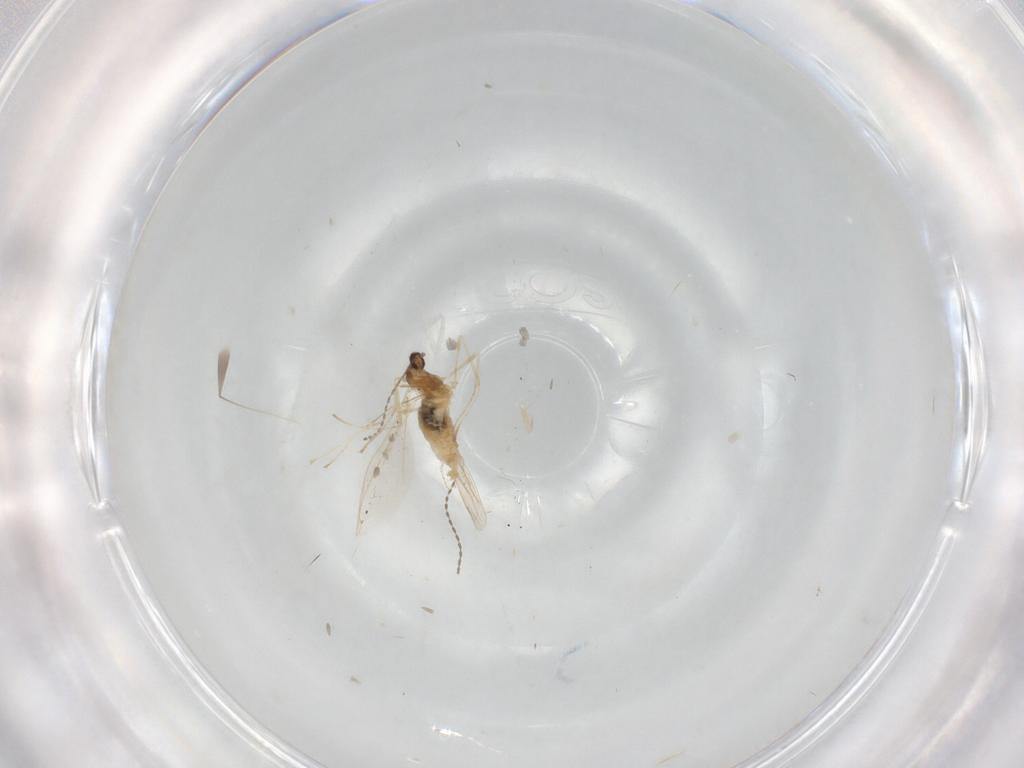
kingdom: Animalia
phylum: Arthropoda
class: Insecta
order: Diptera
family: Cecidomyiidae
